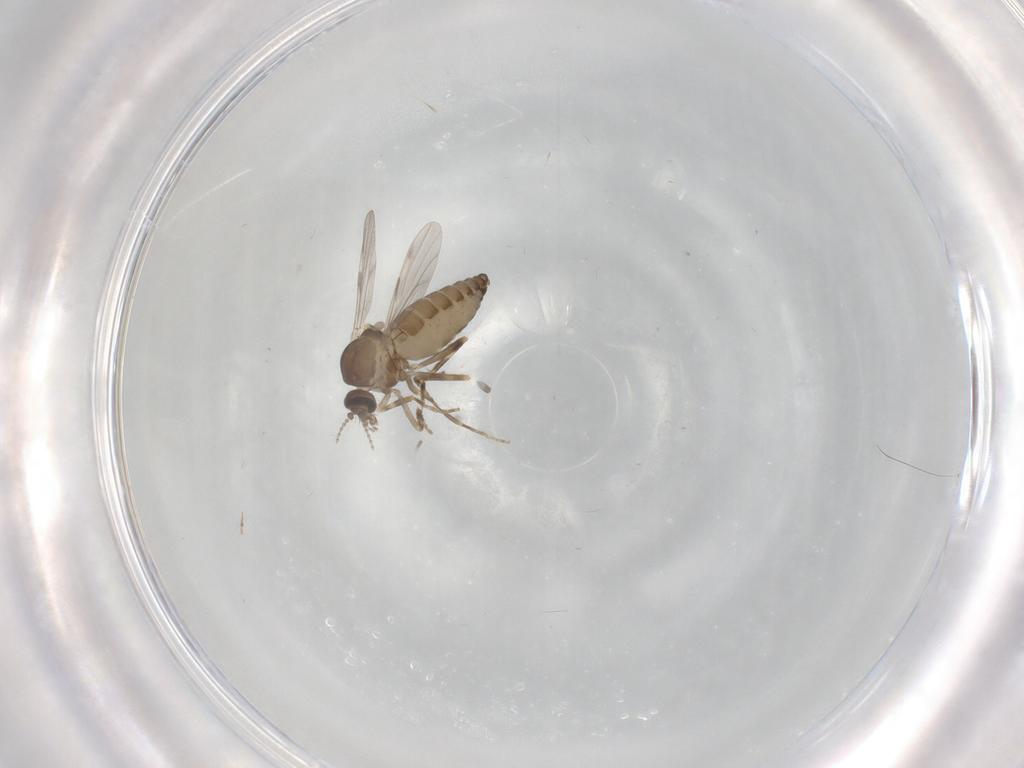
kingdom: Animalia
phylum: Arthropoda
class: Insecta
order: Diptera
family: Ceratopogonidae
